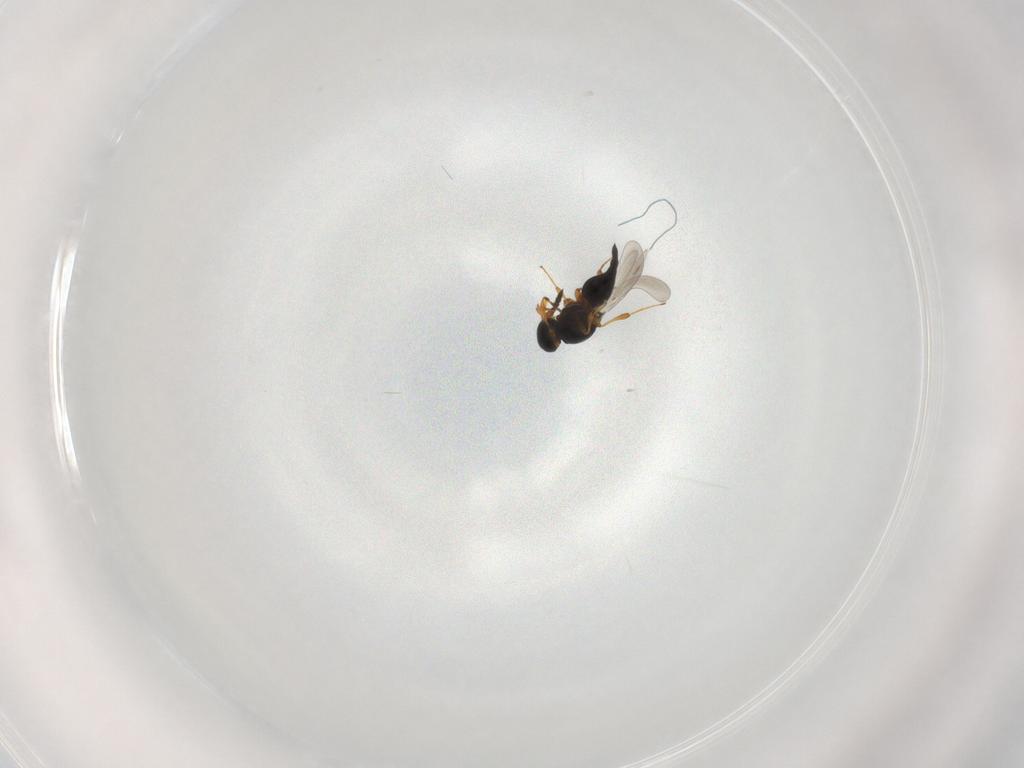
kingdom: Animalia
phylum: Arthropoda
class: Insecta
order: Hymenoptera
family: Platygastridae
